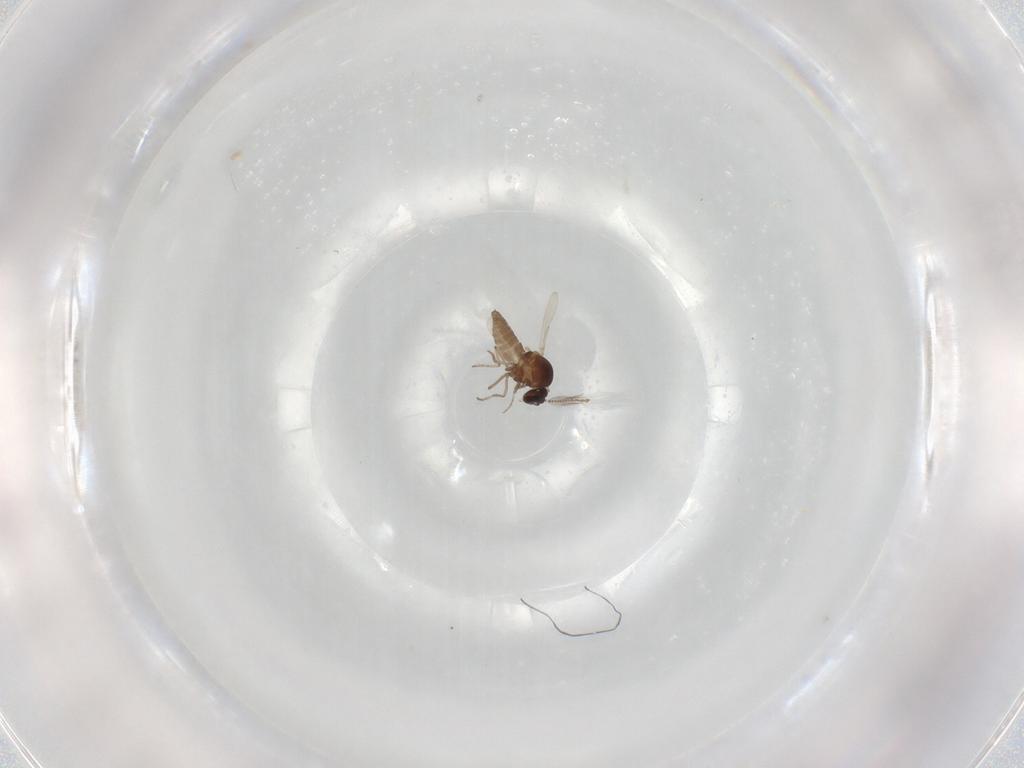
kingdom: Animalia
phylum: Arthropoda
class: Insecta
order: Diptera
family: Ceratopogonidae
